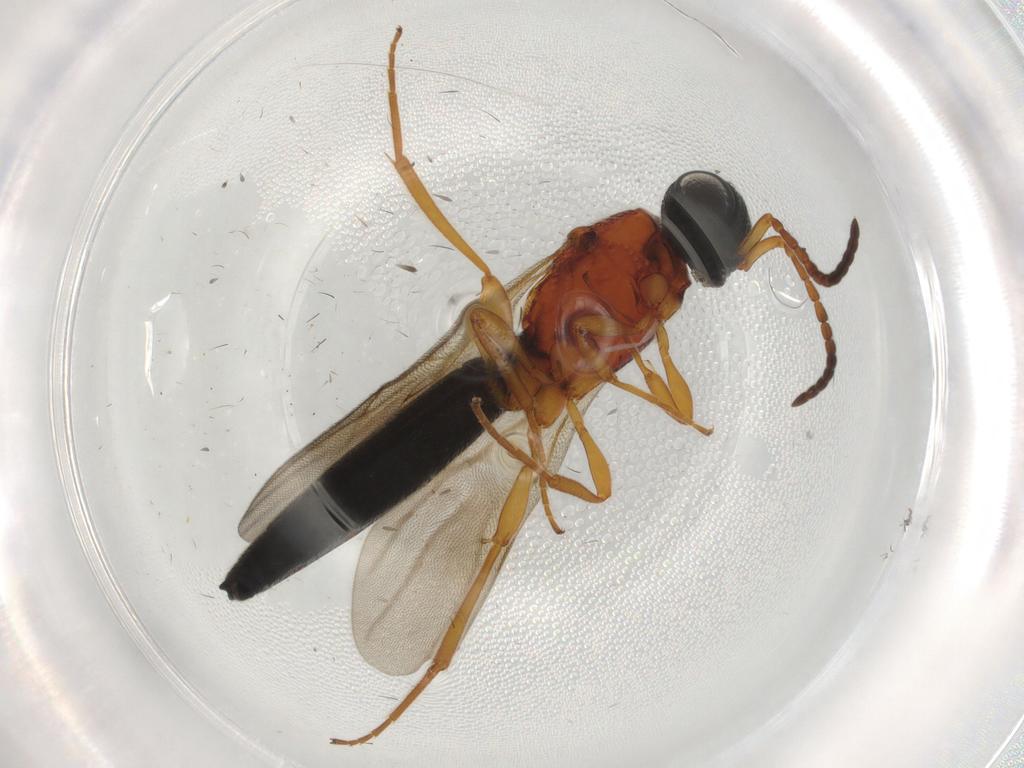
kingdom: Animalia
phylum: Arthropoda
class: Insecta
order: Hymenoptera
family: Scelionidae
